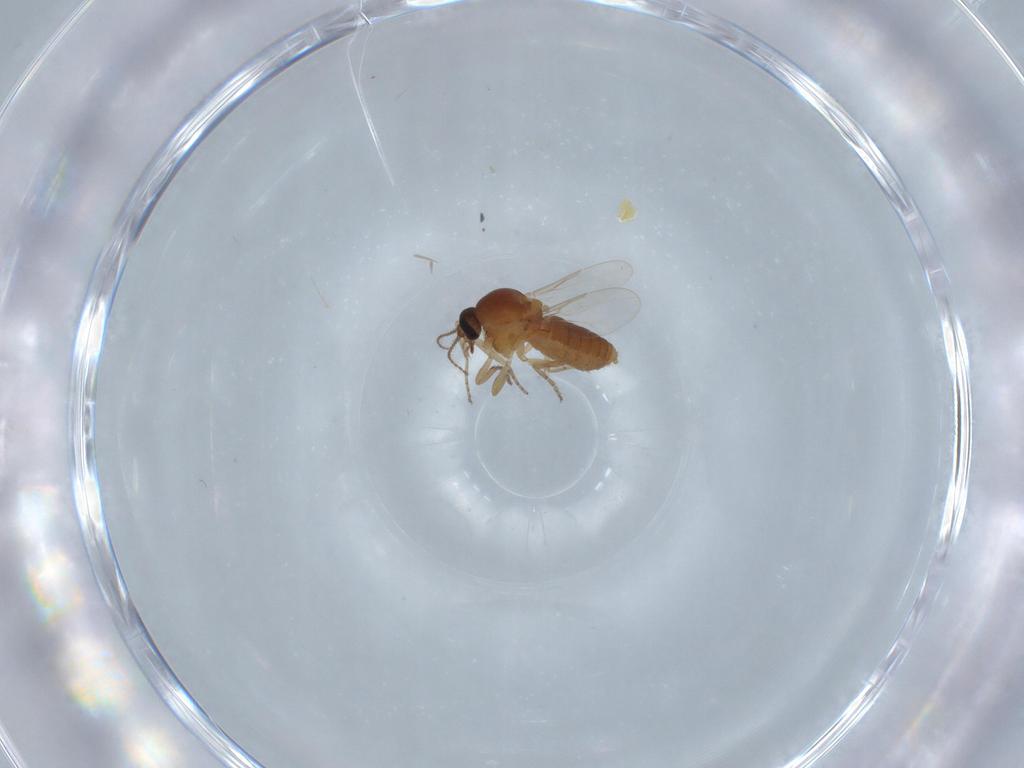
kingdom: Animalia
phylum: Arthropoda
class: Insecta
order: Diptera
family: Ceratopogonidae
